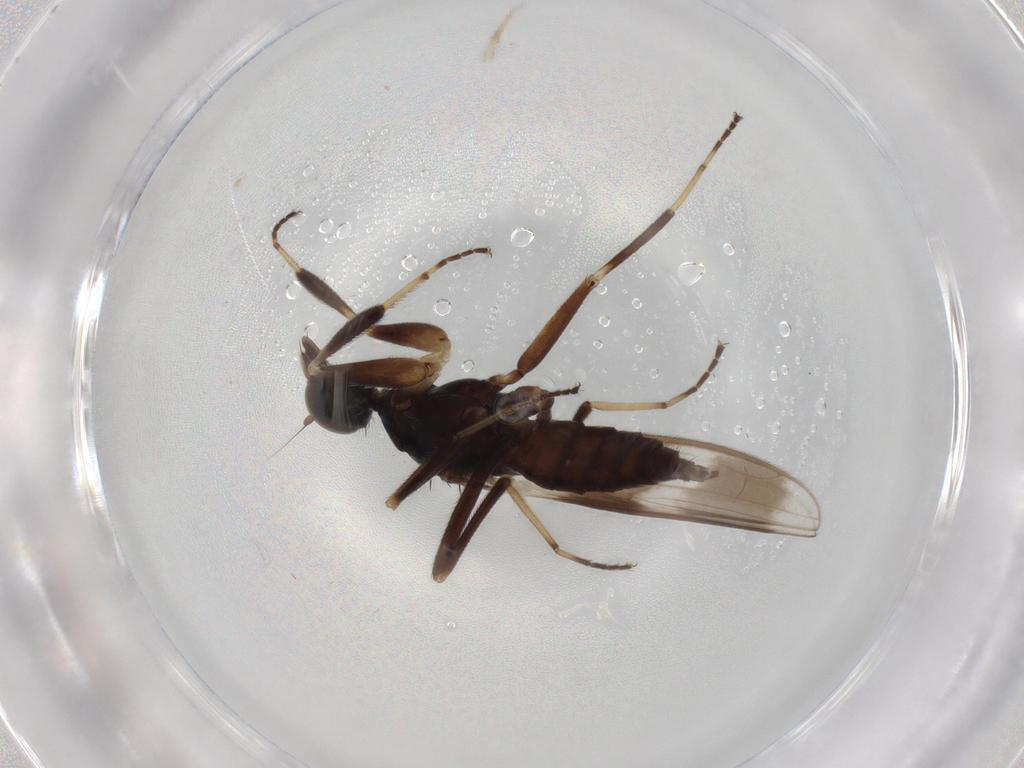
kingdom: Animalia
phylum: Arthropoda
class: Insecta
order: Diptera
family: Hybotidae
